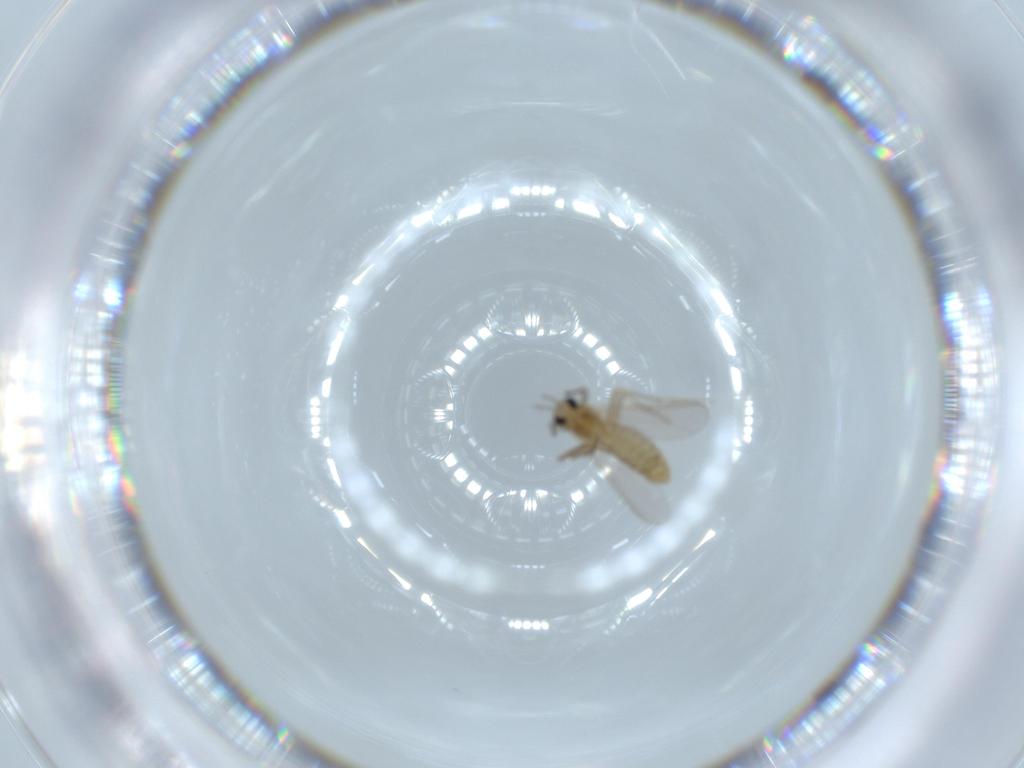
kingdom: Animalia
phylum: Arthropoda
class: Insecta
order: Diptera
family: Chironomidae
